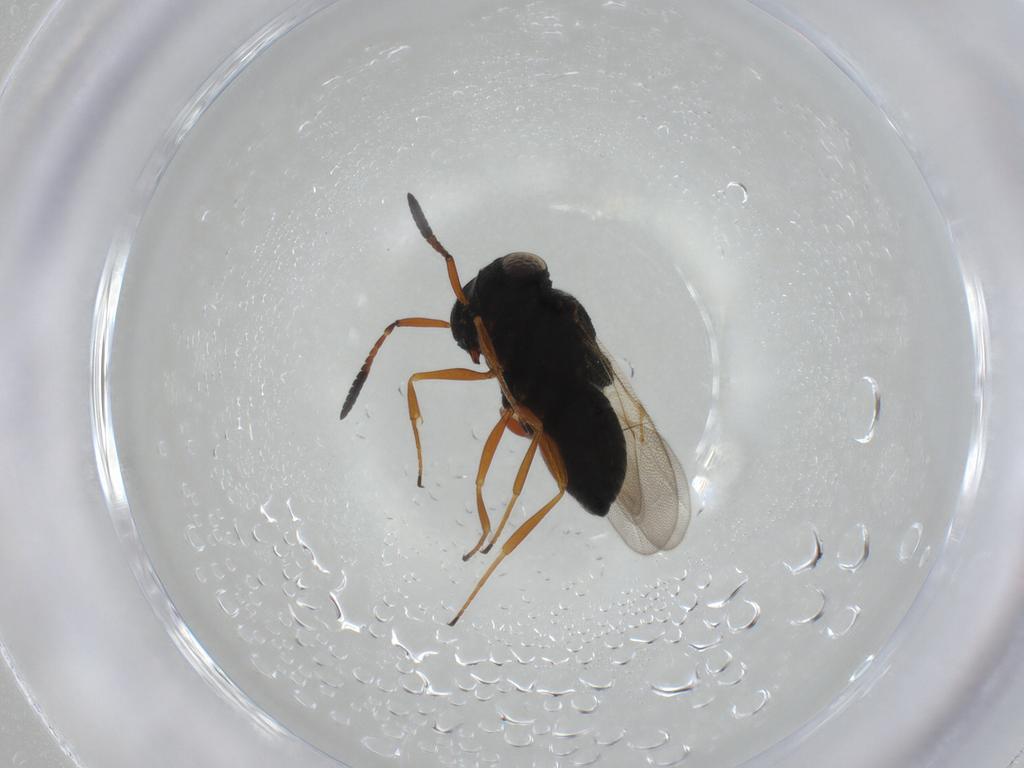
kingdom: Animalia
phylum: Arthropoda
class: Insecta
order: Hymenoptera
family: Scelionidae
